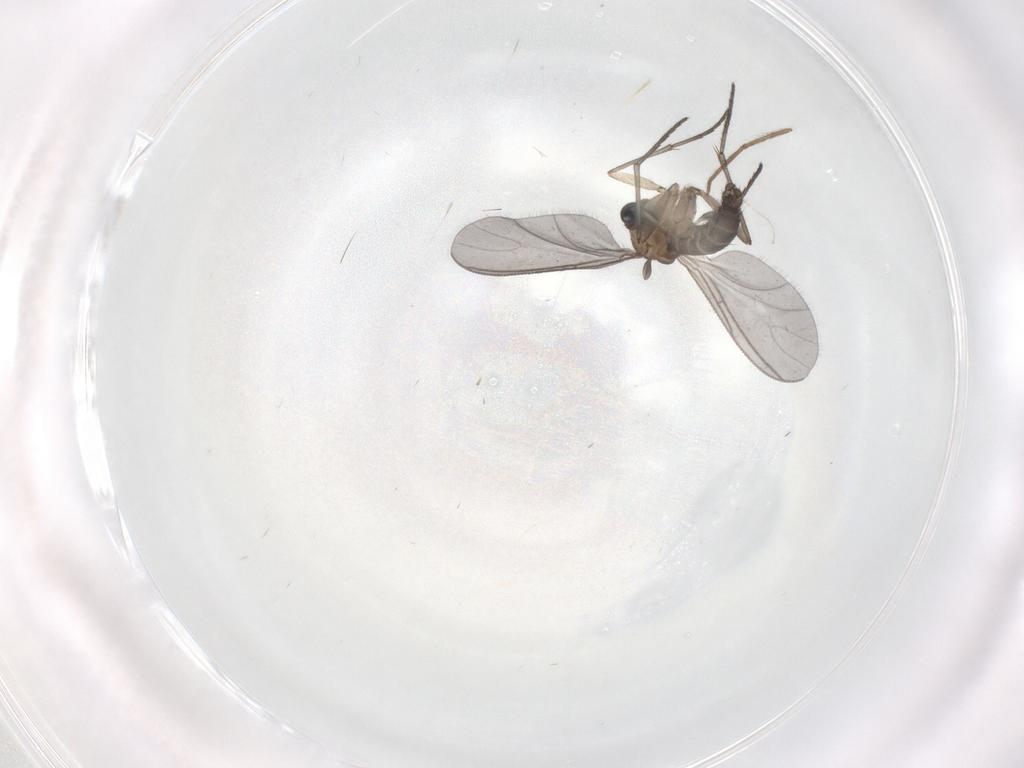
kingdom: Animalia
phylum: Arthropoda
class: Insecta
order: Diptera
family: Sciaridae
